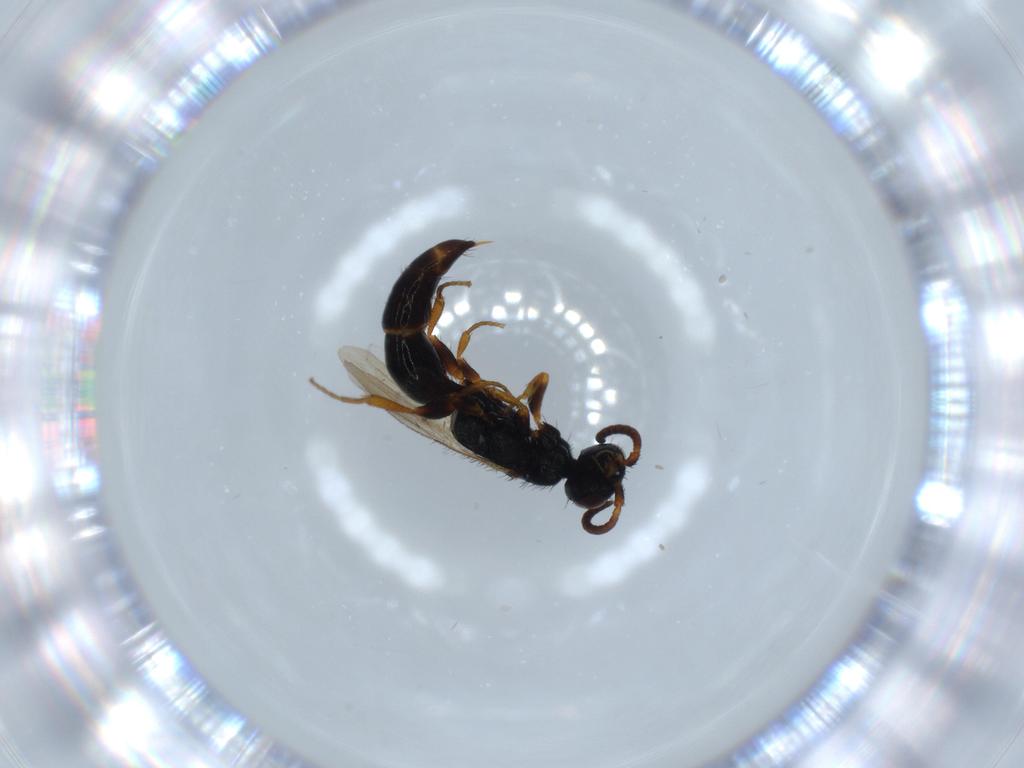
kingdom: Animalia
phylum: Arthropoda
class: Insecta
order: Hymenoptera
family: Bethylidae
